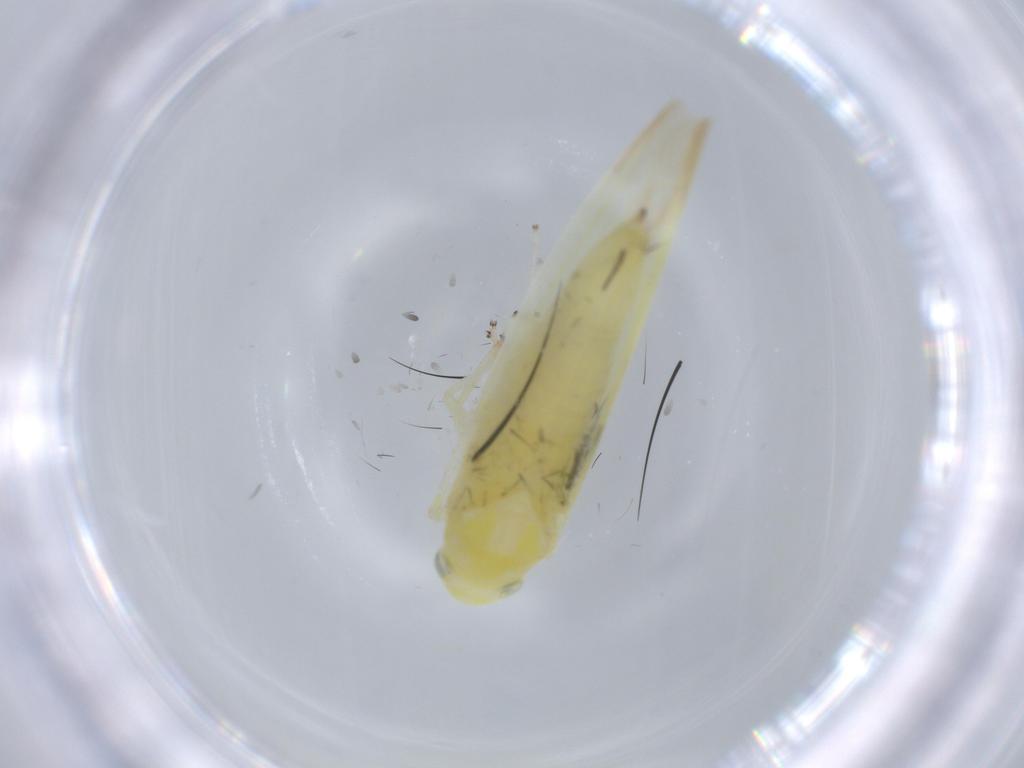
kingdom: Animalia
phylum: Arthropoda
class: Insecta
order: Hemiptera
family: Cicadellidae
